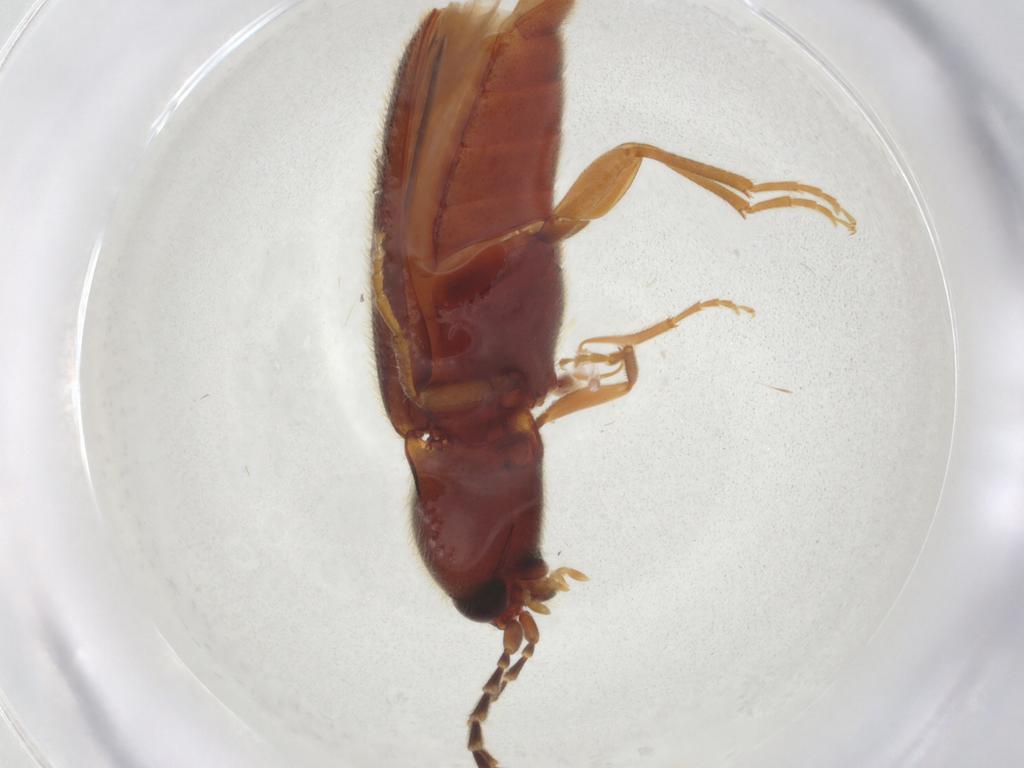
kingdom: Animalia
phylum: Arthropoda
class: Insecta
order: Coleoptera
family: Elateridae
